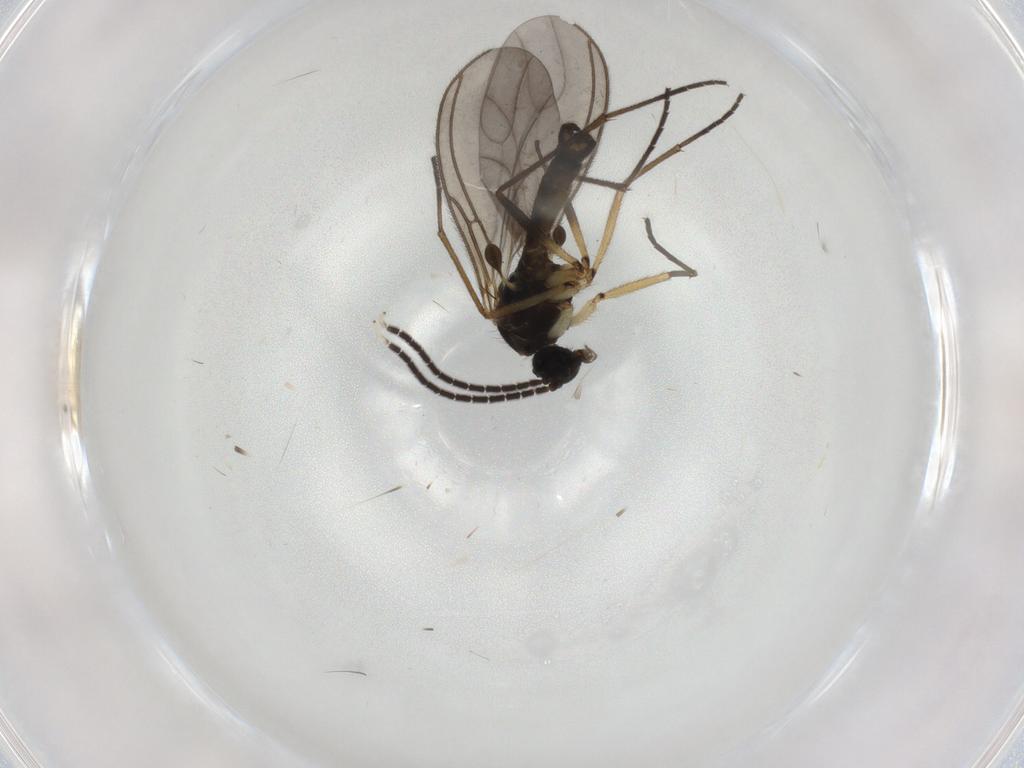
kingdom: Animalia
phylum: Arthropoda
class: Insecta
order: Diptera
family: Sciaridae
